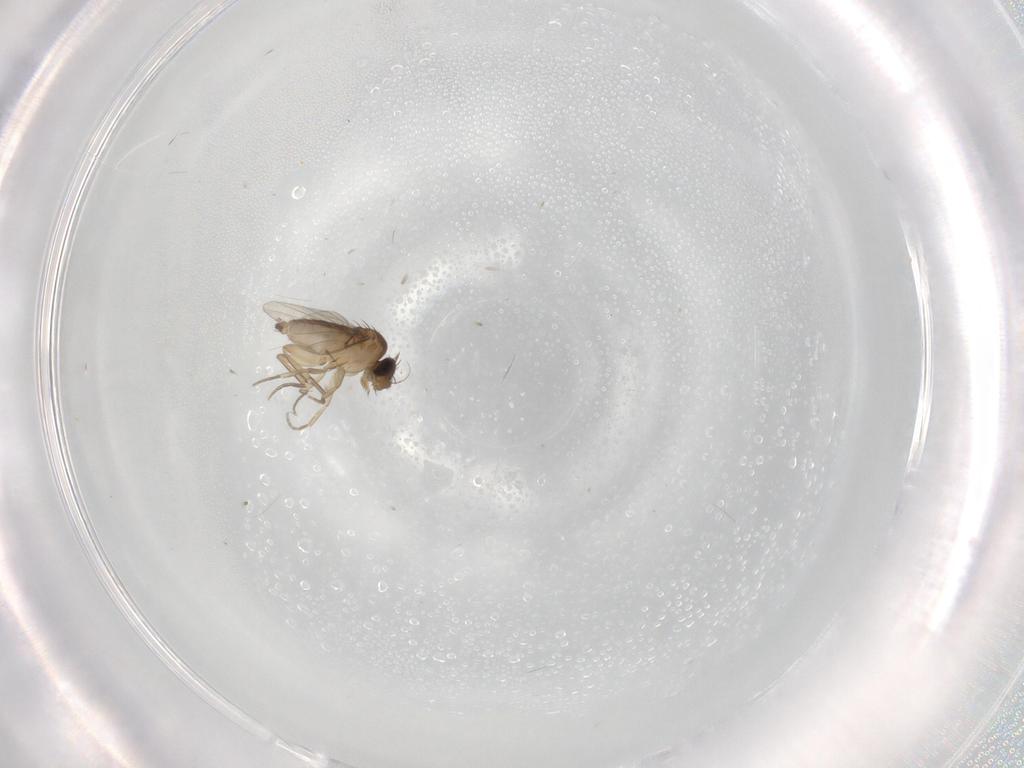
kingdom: Animalia
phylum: Arthropoda
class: Insecta
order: Diptera
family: Phoridae
